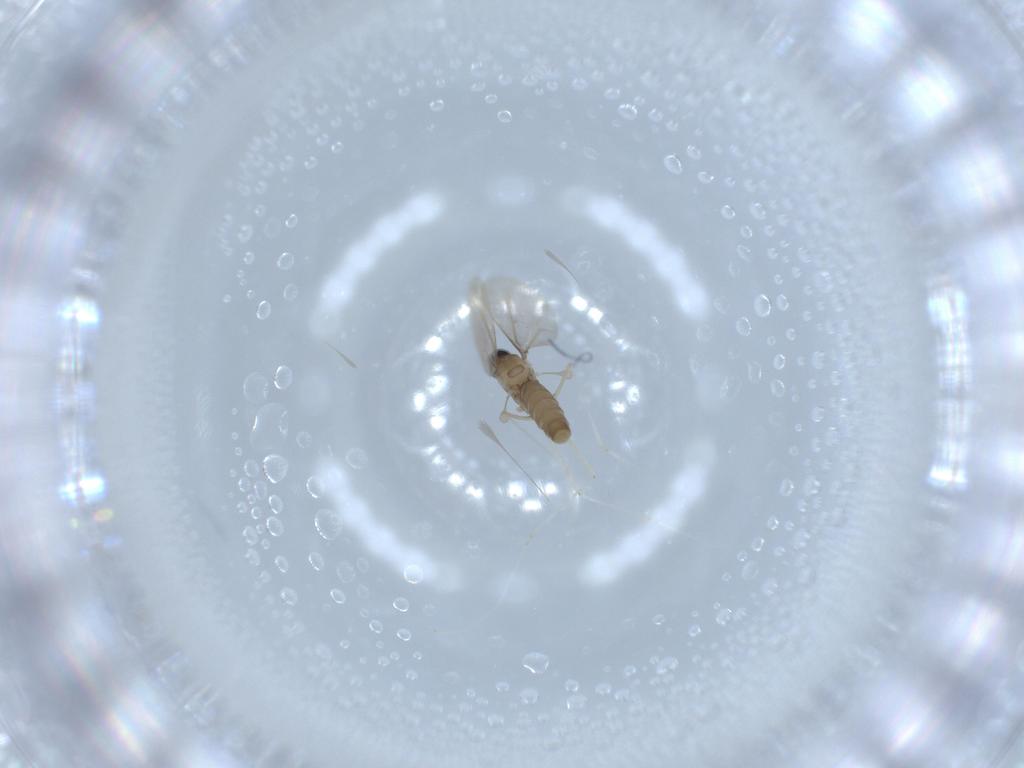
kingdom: Animalia
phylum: Arthropoda
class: Insecta
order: Diptera
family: Cecidomyiidae
